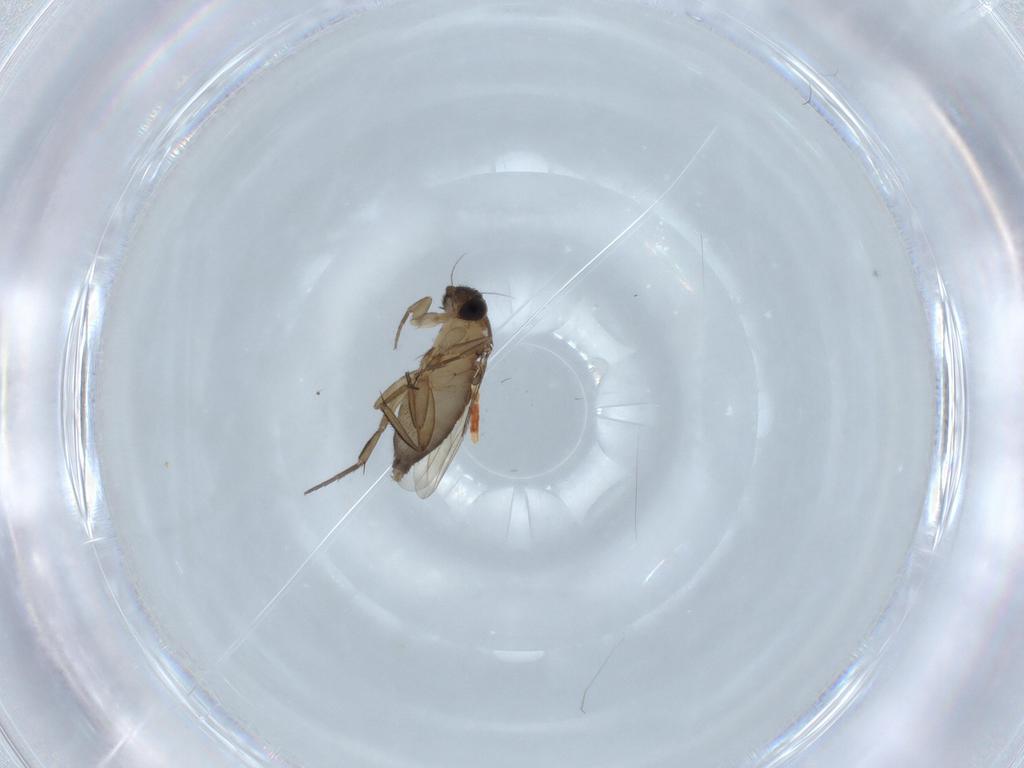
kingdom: Animalia
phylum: Arthropoda
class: Insecta
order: Diptera
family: Phoridae
